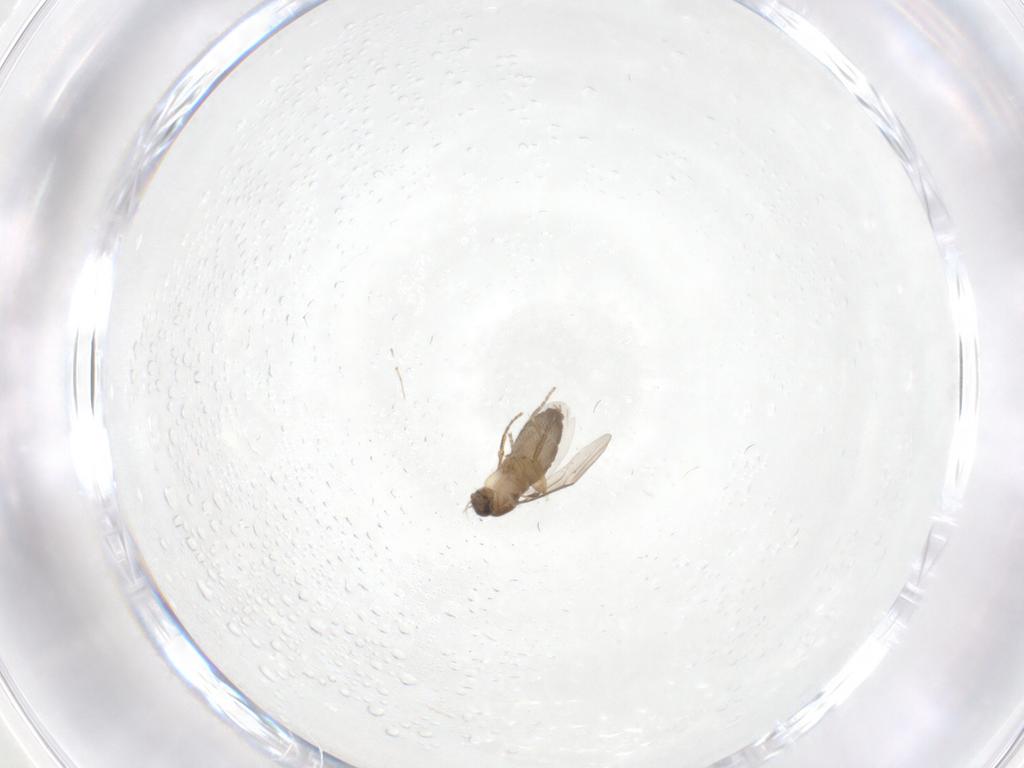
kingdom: Animalia
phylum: Arthropoda
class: Insecta
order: Diptera
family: Phoridae
